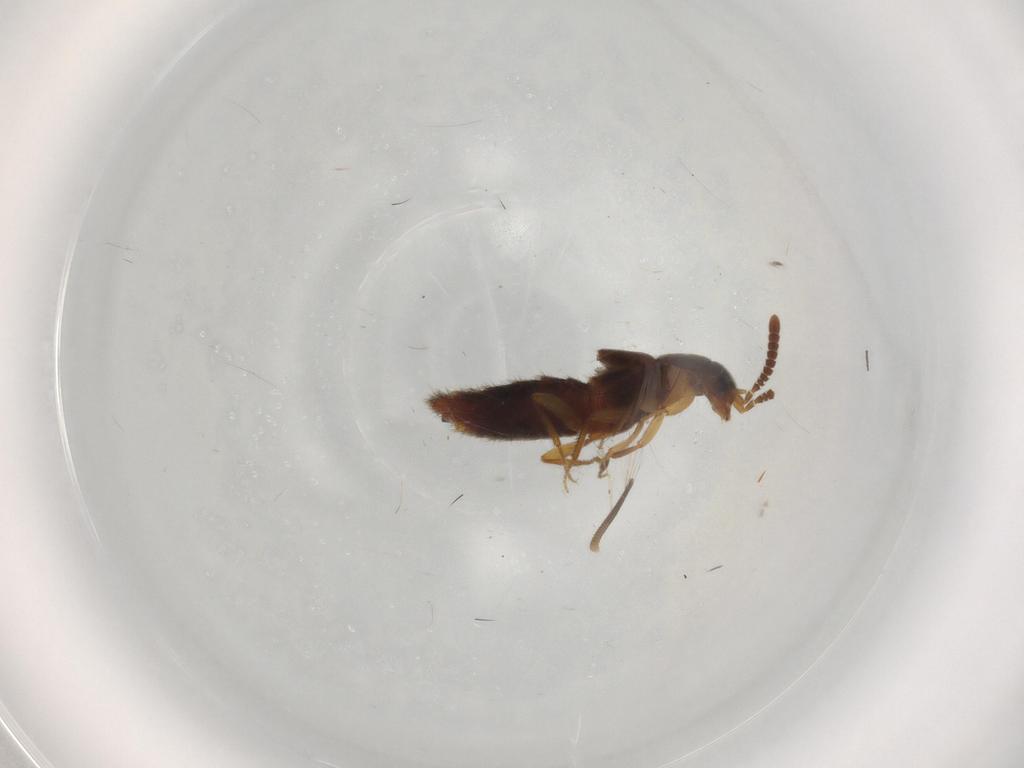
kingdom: Animalia
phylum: Arthropoda
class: Insecta
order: Coleoptera
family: Staphylinidae
